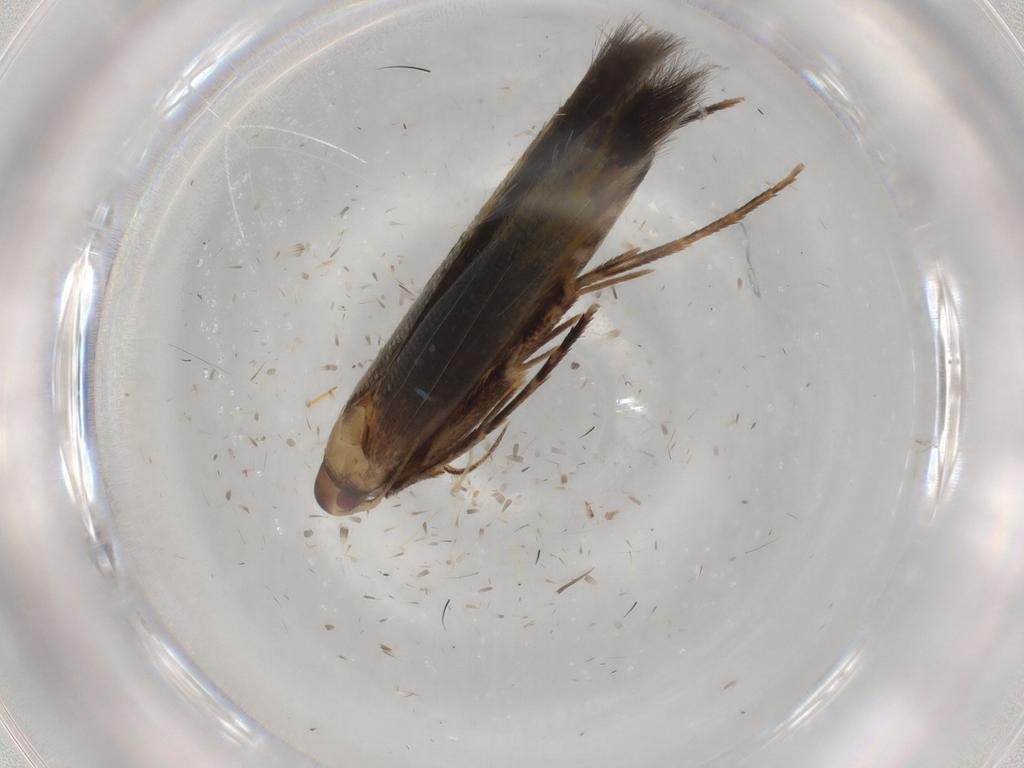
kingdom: Animalia
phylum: Arthropoda
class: Insecta
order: Lepidoptera
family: Cosmopterigidae
